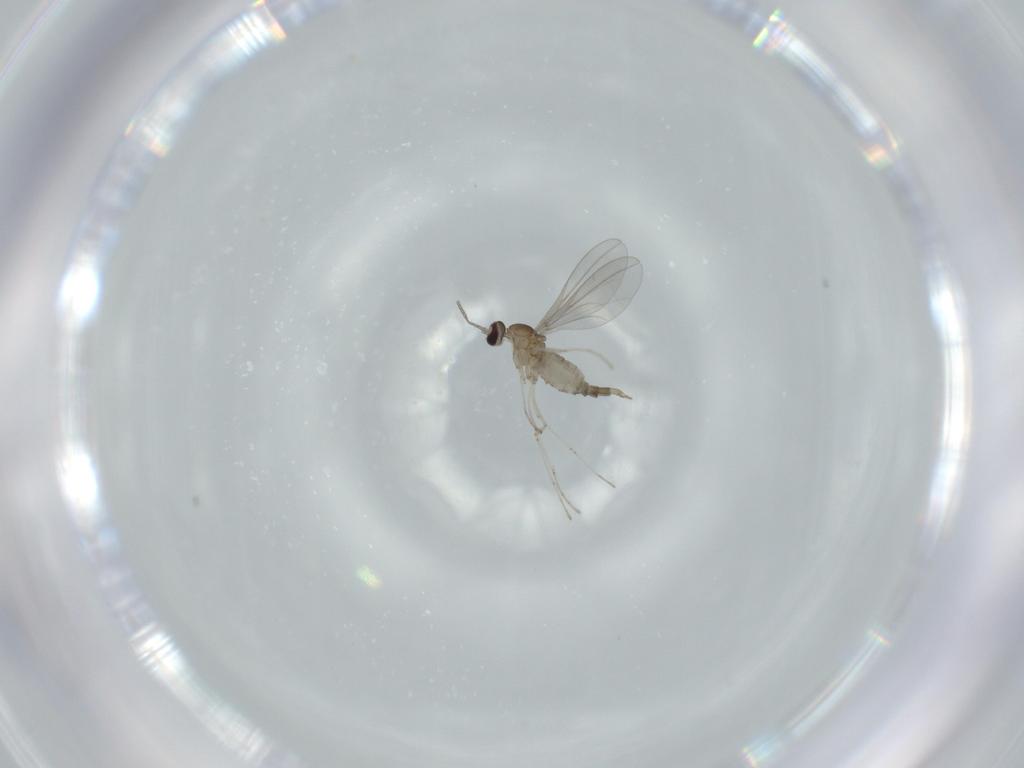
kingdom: Animalia
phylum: Arthropoda
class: Insecta
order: Diptera
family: Cecidomyiidae
